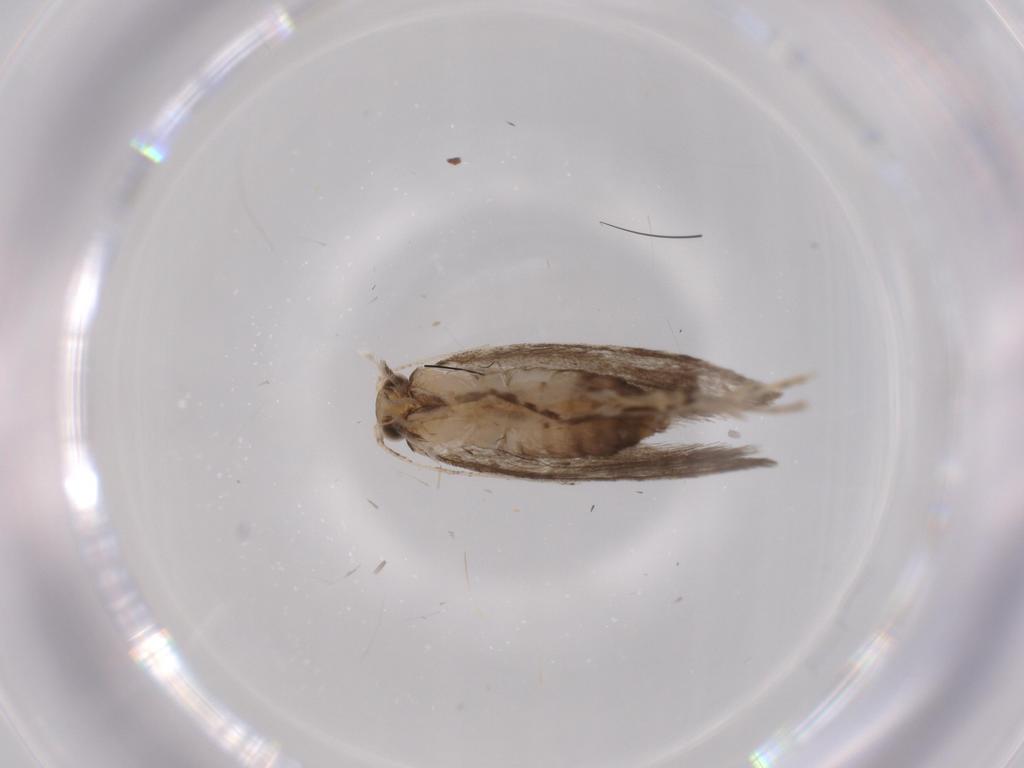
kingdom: Animalia
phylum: Arthropoda
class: Insecta
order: Lepidoptera
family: Tineidae
